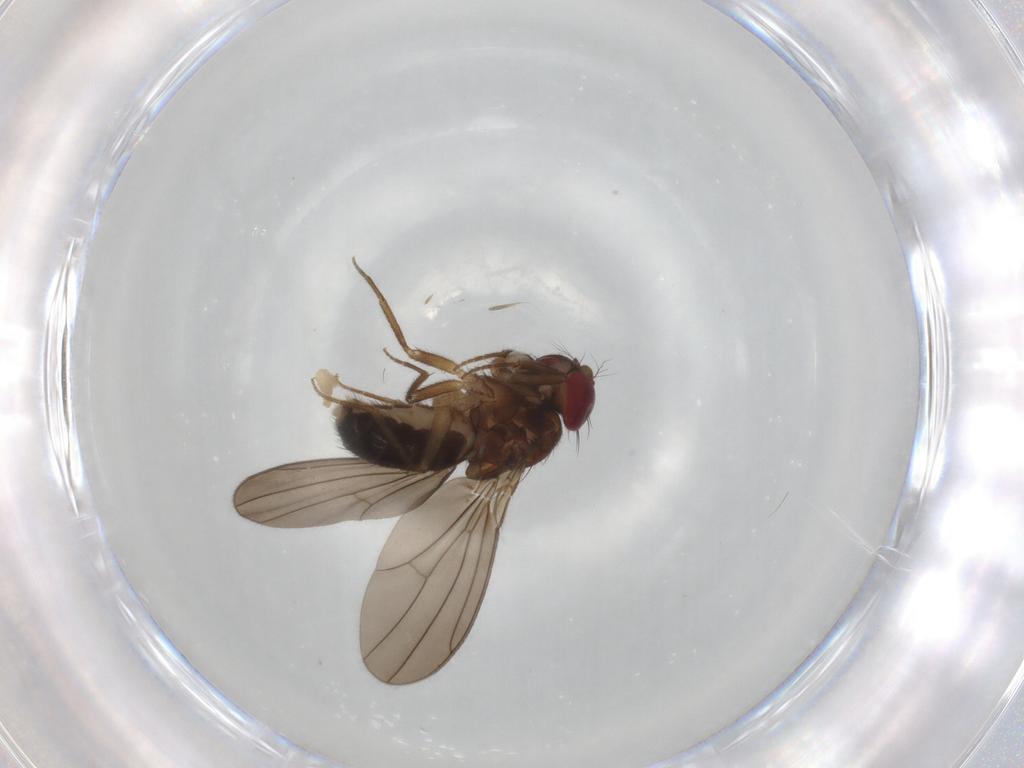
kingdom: Animalia
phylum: Arthropoda
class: Insecta
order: Diptera
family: Drosophilidae
